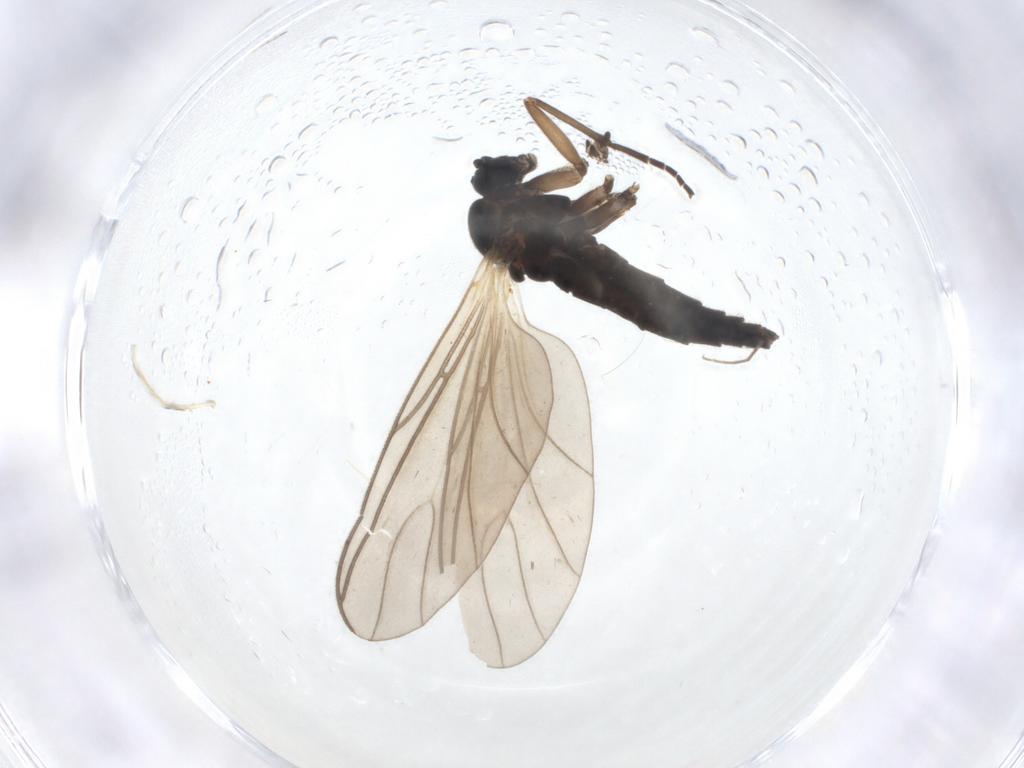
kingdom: Animalia
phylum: Arthropoda
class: Insecta
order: Diptera
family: Sciaridae
